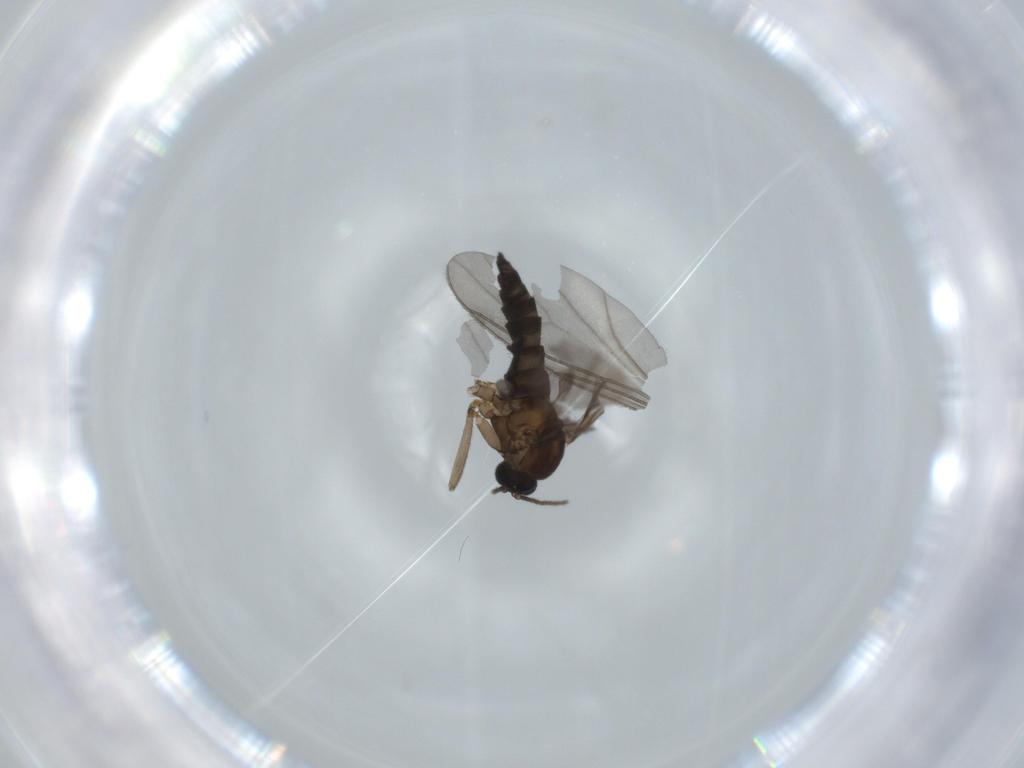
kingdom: Animalia
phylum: Arthropoda
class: Insecta
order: Diptera
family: Sciaridae
